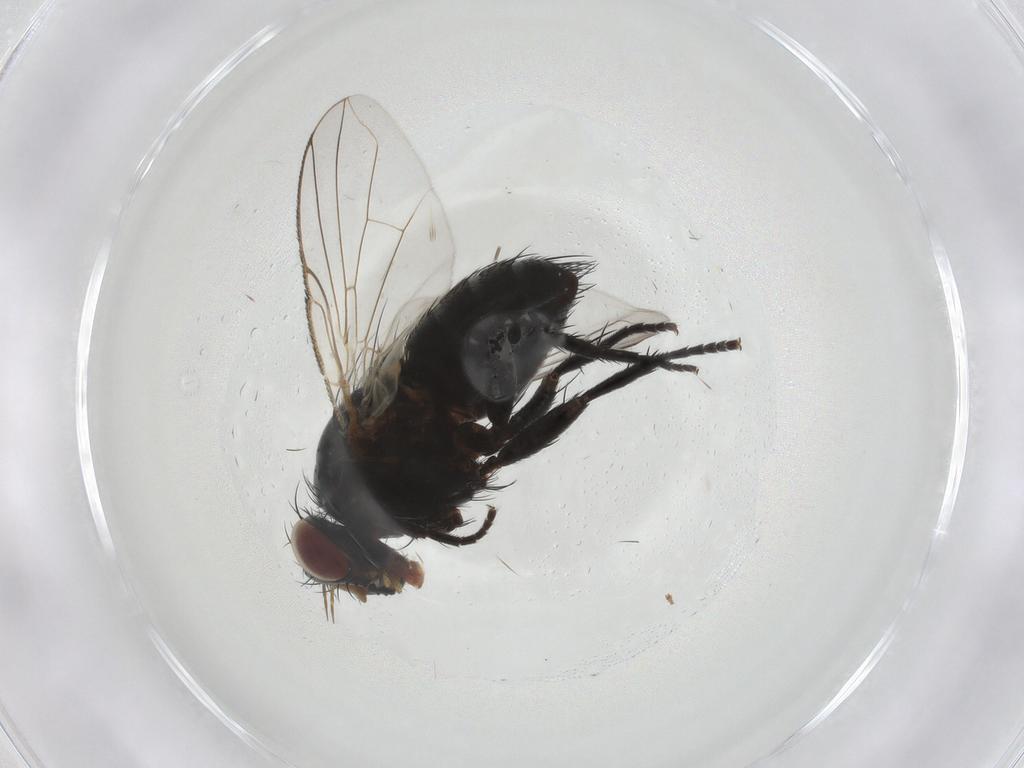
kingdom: Animalia
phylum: Arthropoda
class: Insecta
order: Diptera
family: Tachinidae
